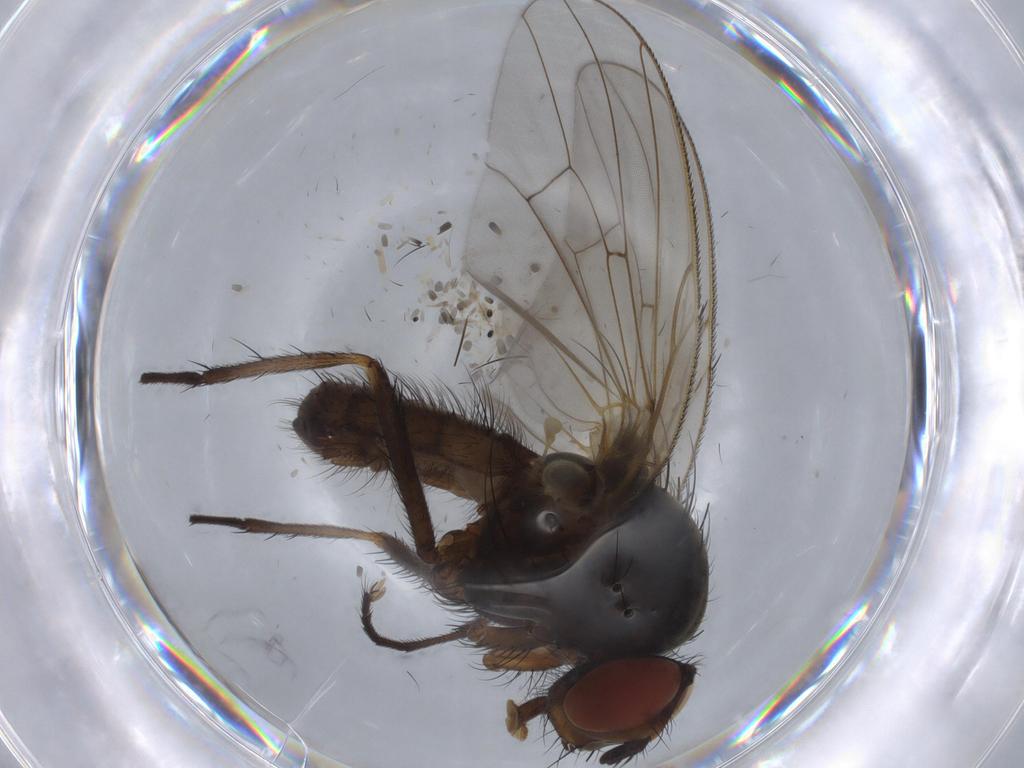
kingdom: Animalia
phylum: Arthropoda
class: Insecta
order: Diptera
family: Anthomyiidae
